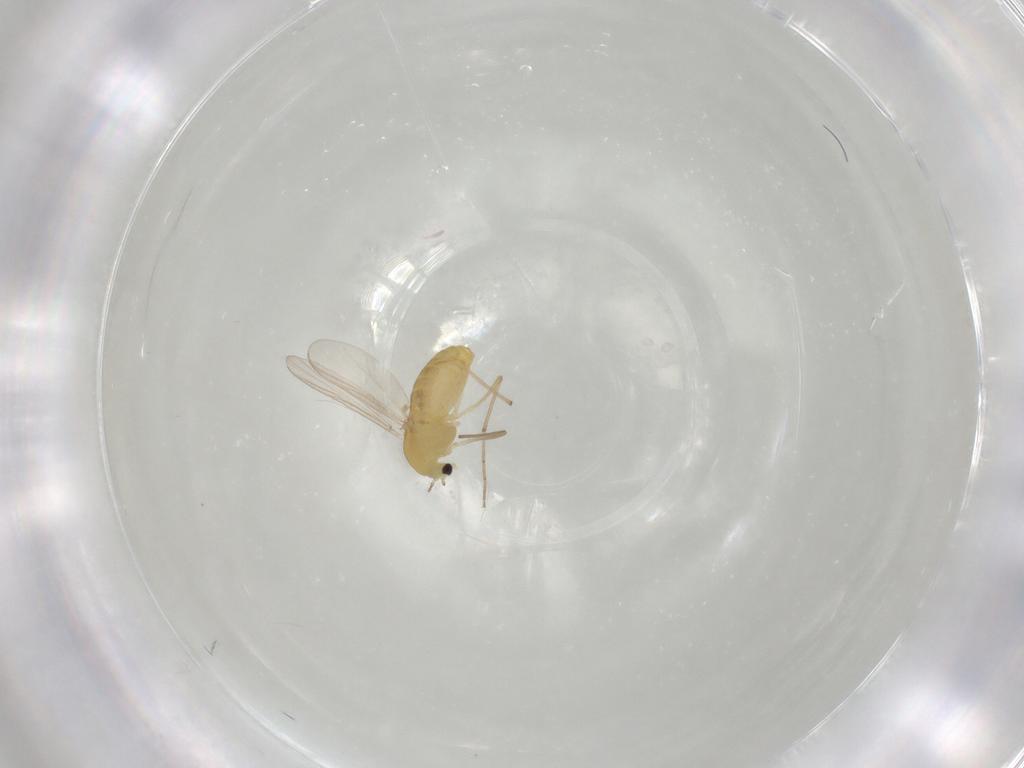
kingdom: Animalia
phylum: Arthropoda
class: Insecta
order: Diptera
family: Chironomidae
